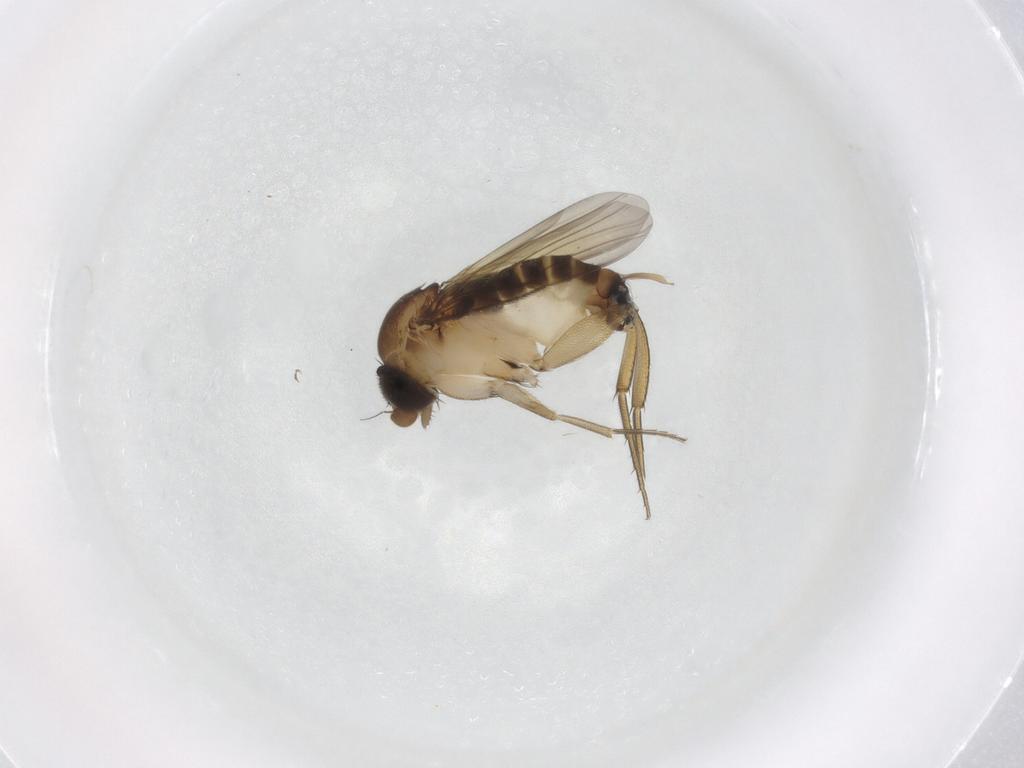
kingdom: Animalia
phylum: Arthropoda
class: Insecta
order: Diptera
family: Phoridae
